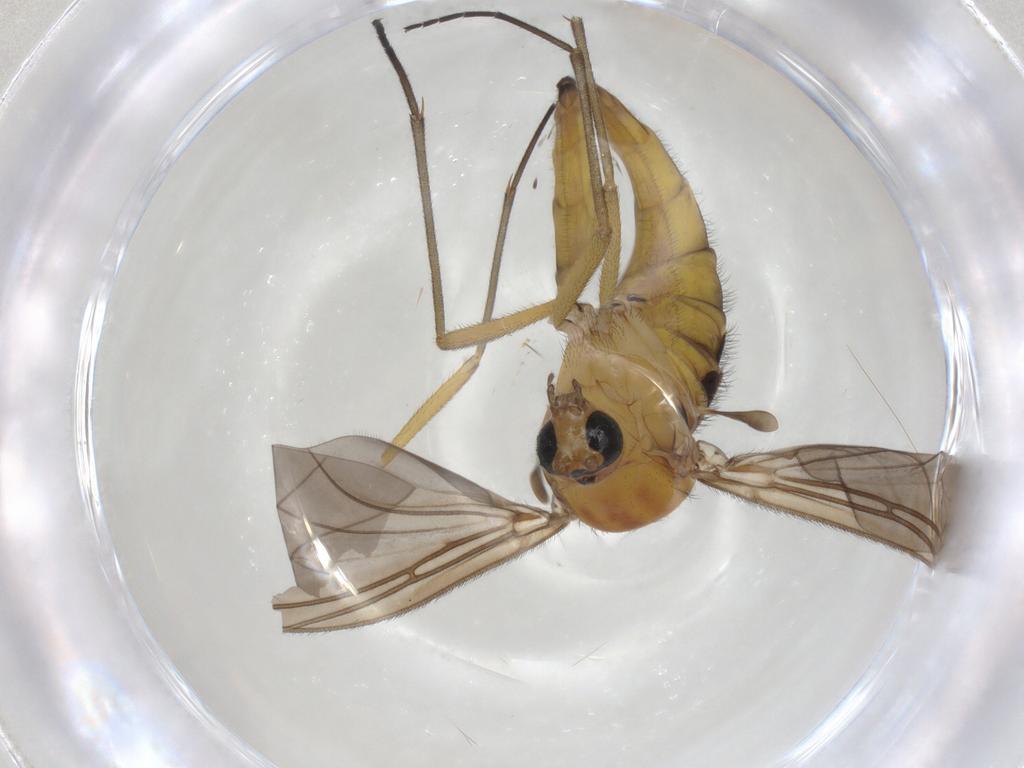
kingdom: Animalia
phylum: Arthropoda
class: Insecta
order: Diptera
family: Sciaridae
